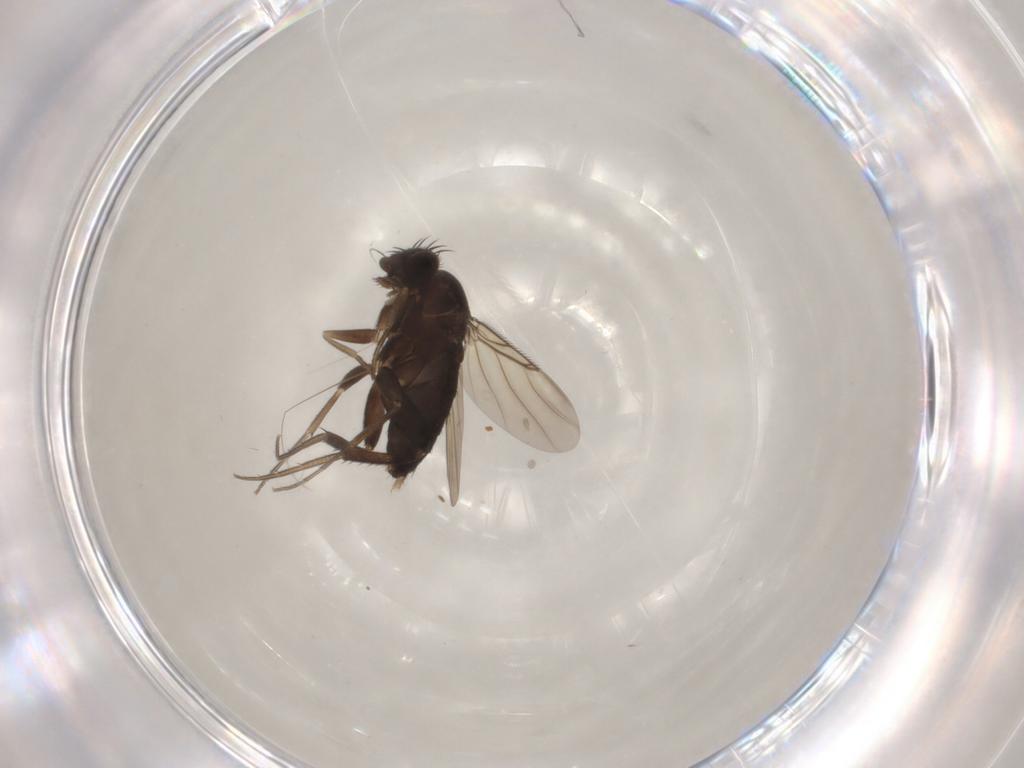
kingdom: Animalia
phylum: Arthropoda
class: Insecta
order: Diptera
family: Phoridae
